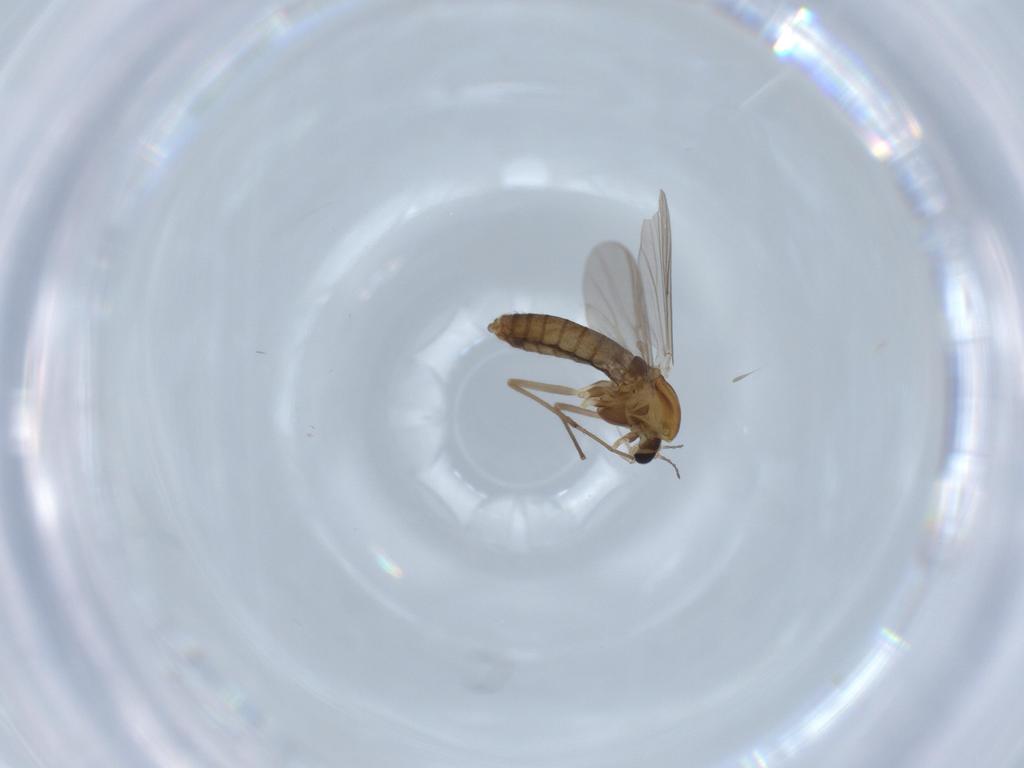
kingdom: Animalia
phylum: Arthropoda
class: Insecta
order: Diptera
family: Chironomidae
